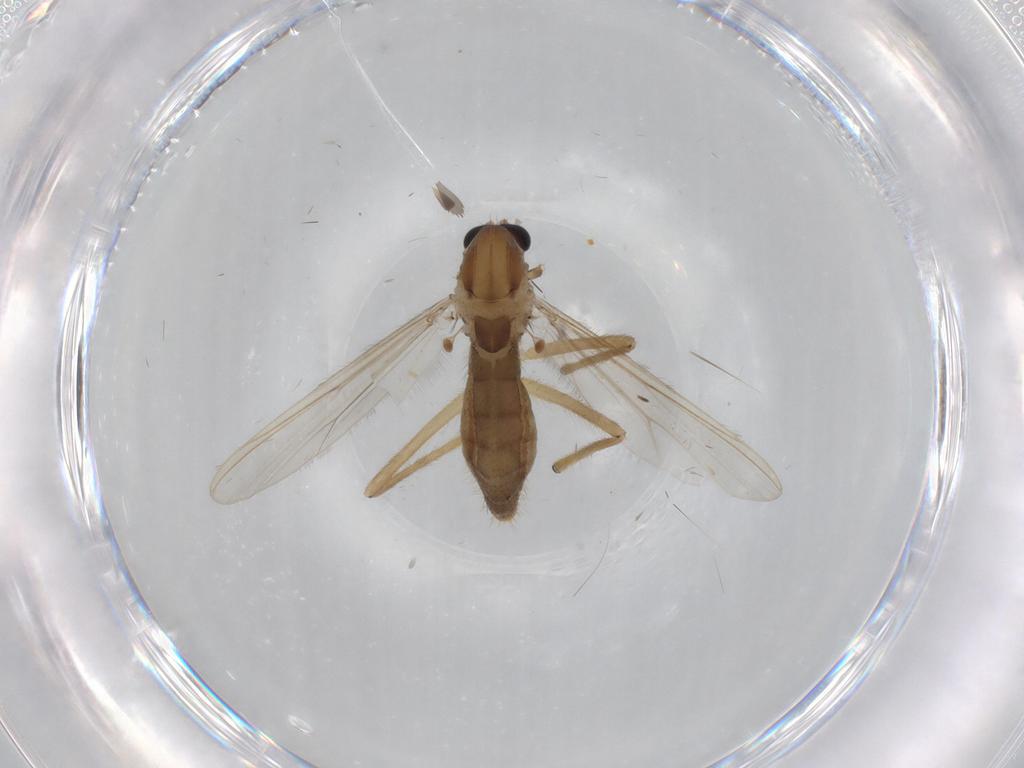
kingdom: Animalia
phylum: Arthropoda
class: Insecta
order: Diptera
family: Chironomidae
